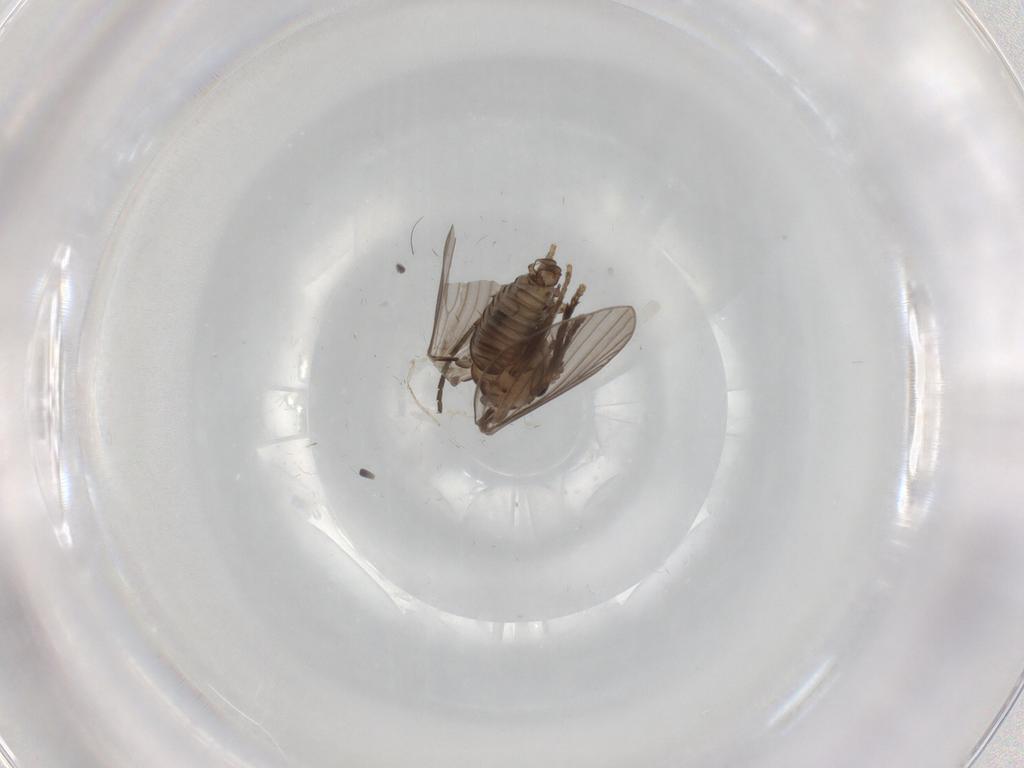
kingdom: Animalia
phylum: Arthropoda
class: Insecta
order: Diptera
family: Psychodidae
